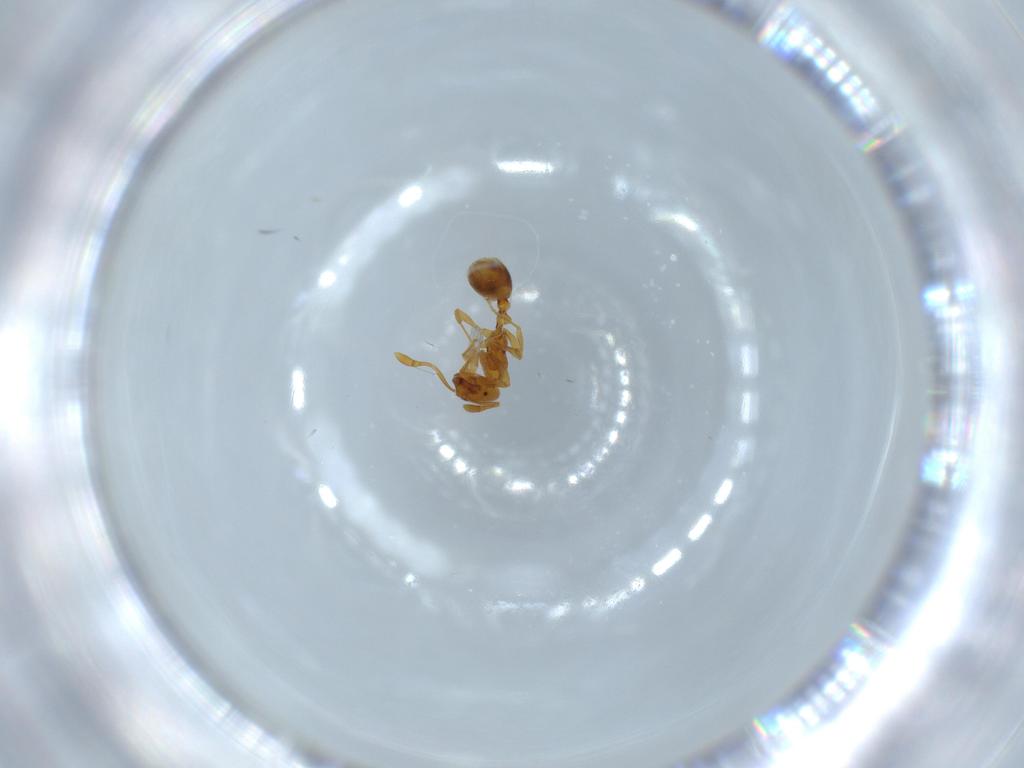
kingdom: Animalia
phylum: Arthropoda
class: Insecta
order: Hymenoptera
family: Formicidae
